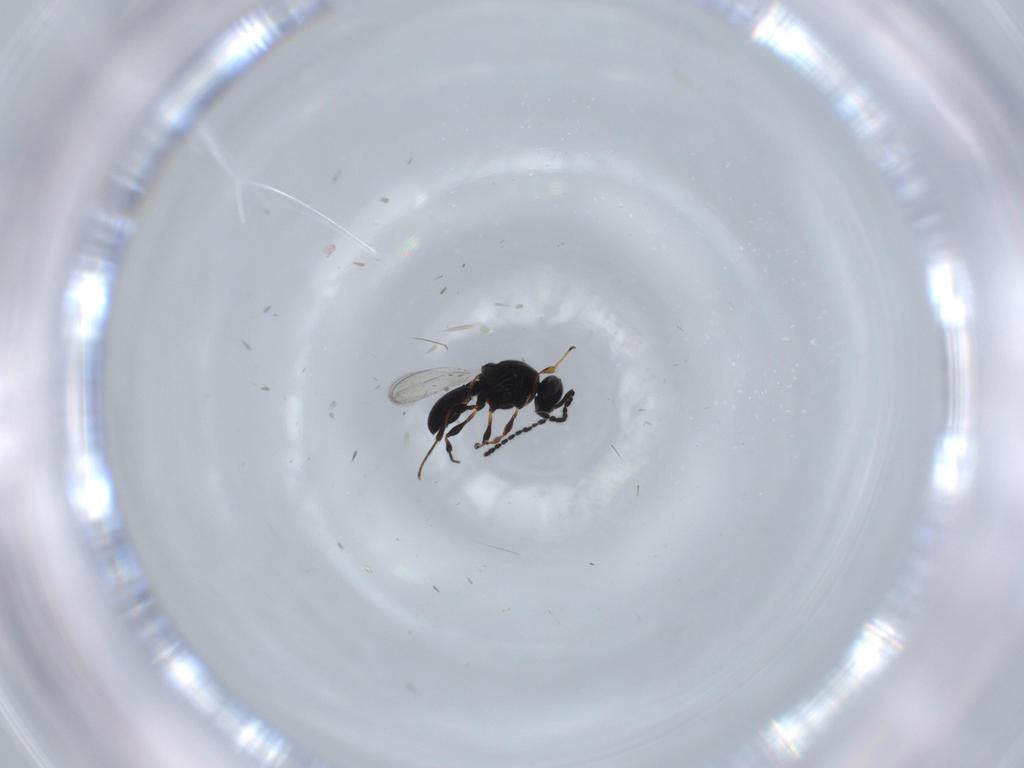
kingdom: Animalia
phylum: Arthropoda
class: Insecta
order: Hymenoptera
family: Platygastridae
